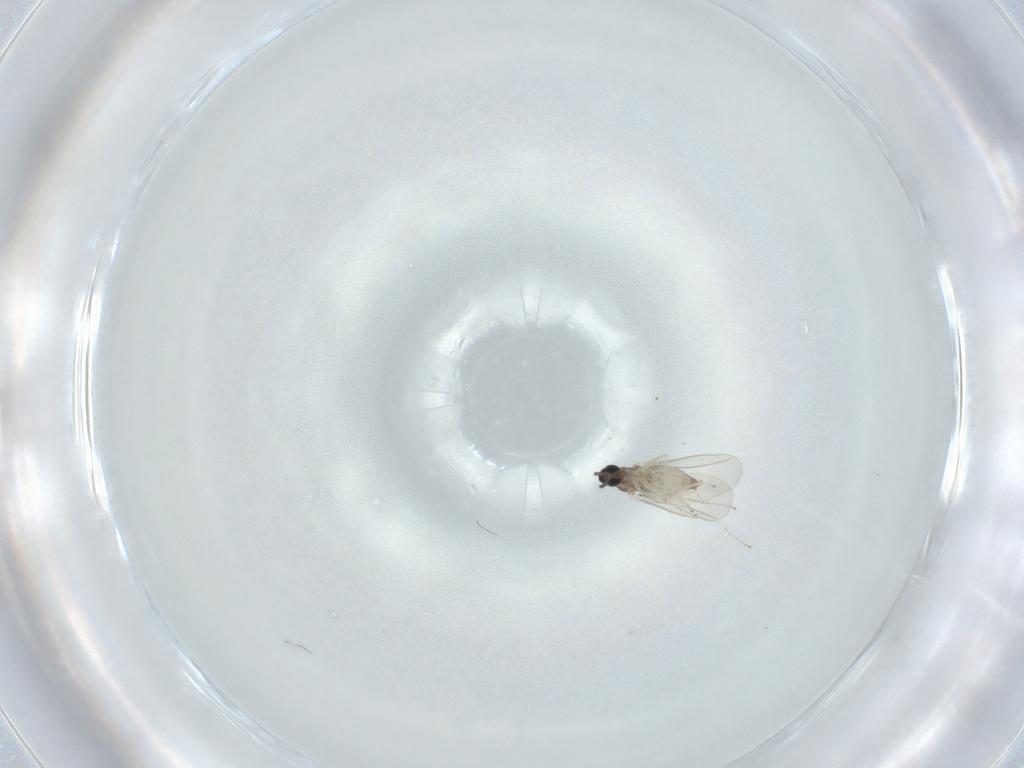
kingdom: Animalia
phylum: Arthropoda
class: Insecta
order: Diptera
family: Cecidomyiidae
